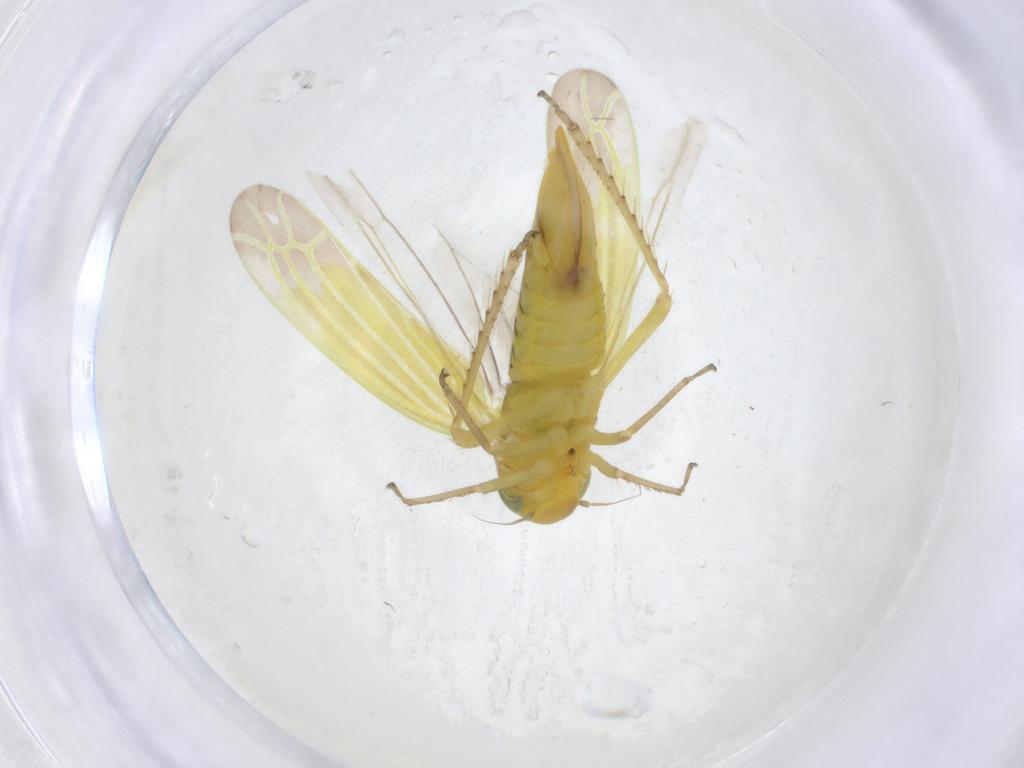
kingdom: Animalia
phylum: Arthropoda
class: Insecta
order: Hemiptera
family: Cicadellidae
